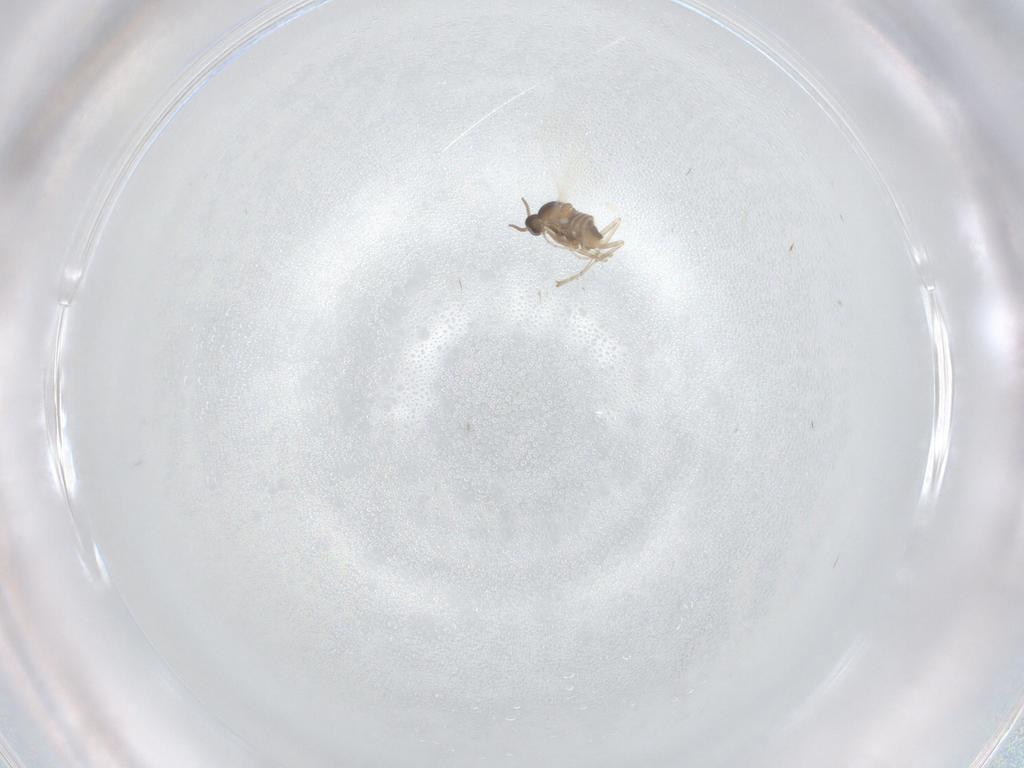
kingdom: Animalia
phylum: Arthropoda
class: Insecta
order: Diptera
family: Cecidomyiidae
